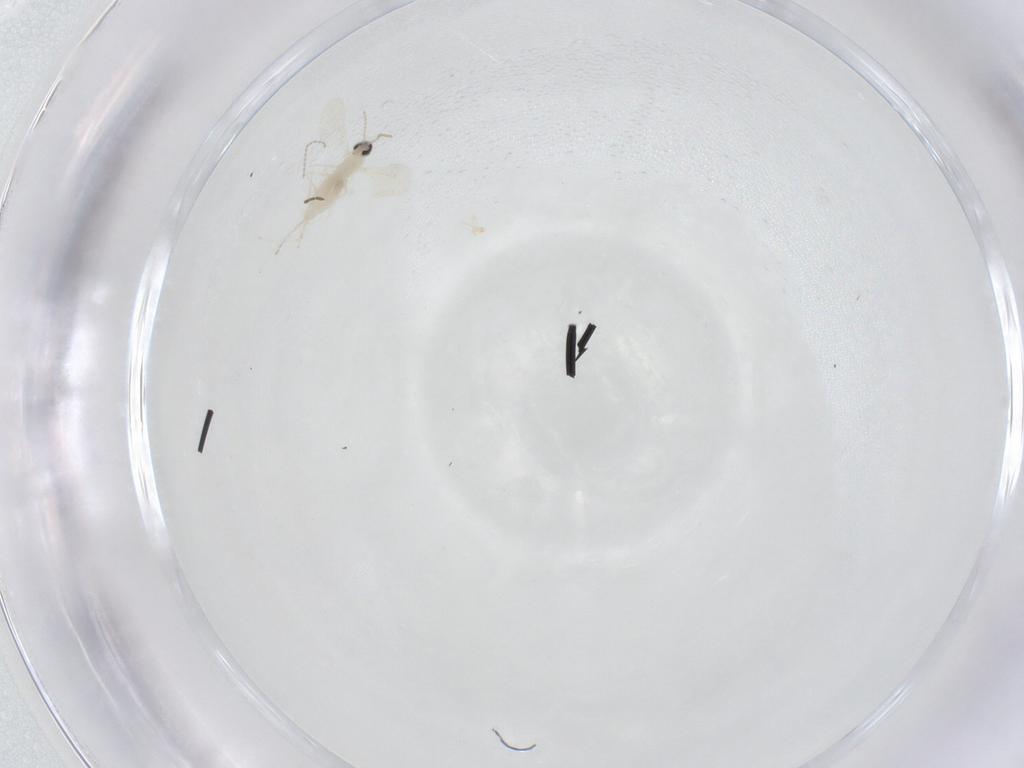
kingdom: Animalia
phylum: Arthropoda
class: Insecta
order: Diptera
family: Cecidomyiidae
